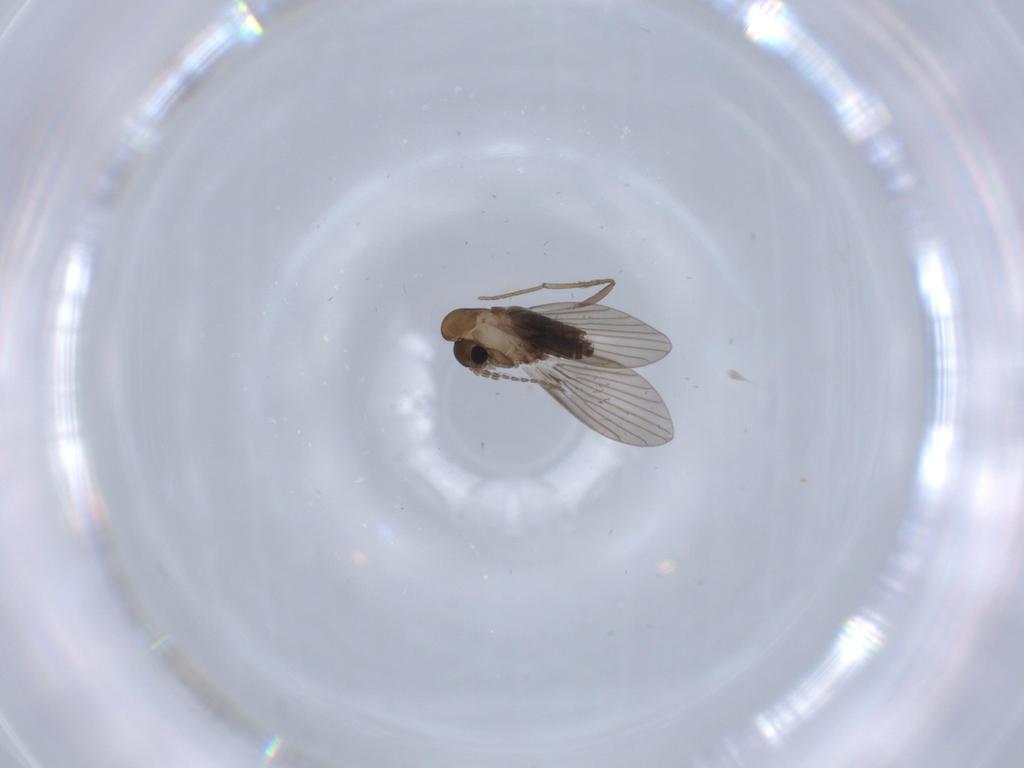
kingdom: Animalia
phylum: Arthropoda
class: Insecta
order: Diptera
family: Psychodidae
